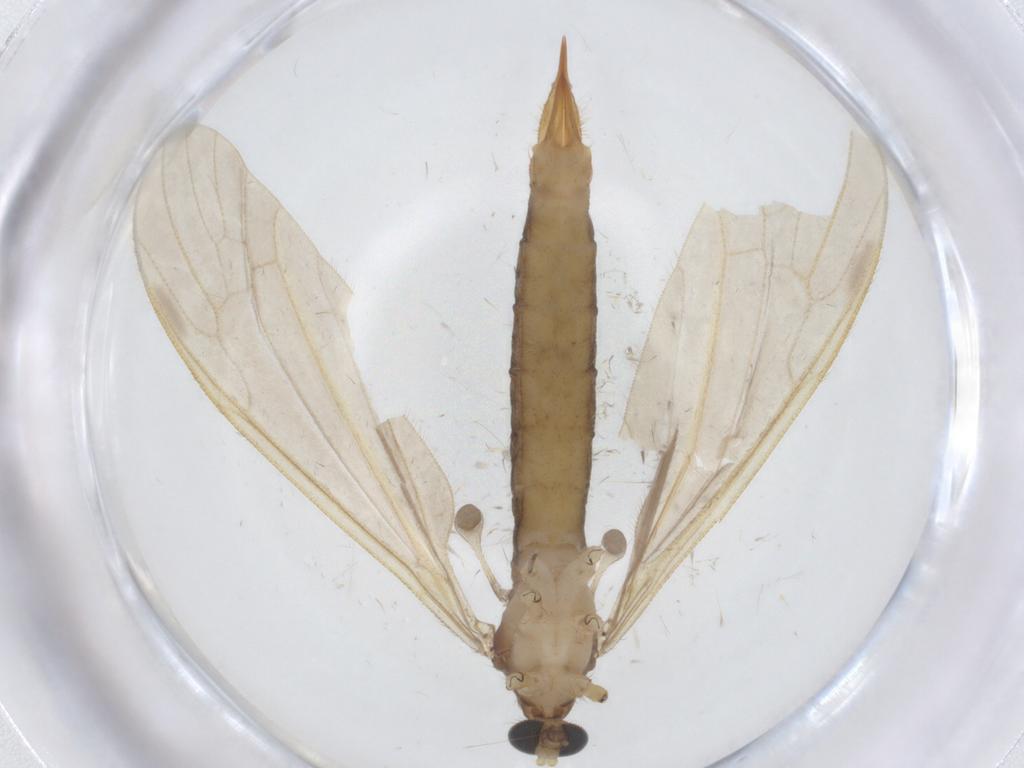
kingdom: Animalia
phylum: Arthropoda
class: Insecta
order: Diptera
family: Limoniidae
